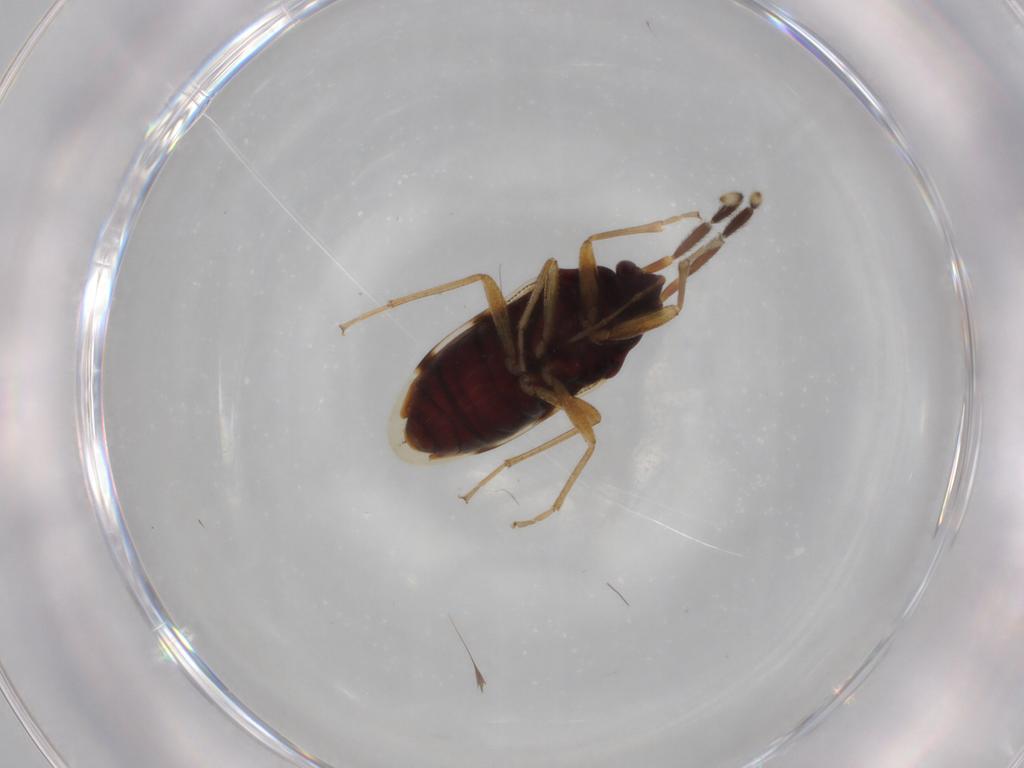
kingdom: Animalia
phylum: Arthropoda
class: Insecta
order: Hemiptera
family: Rhyparochromidae
